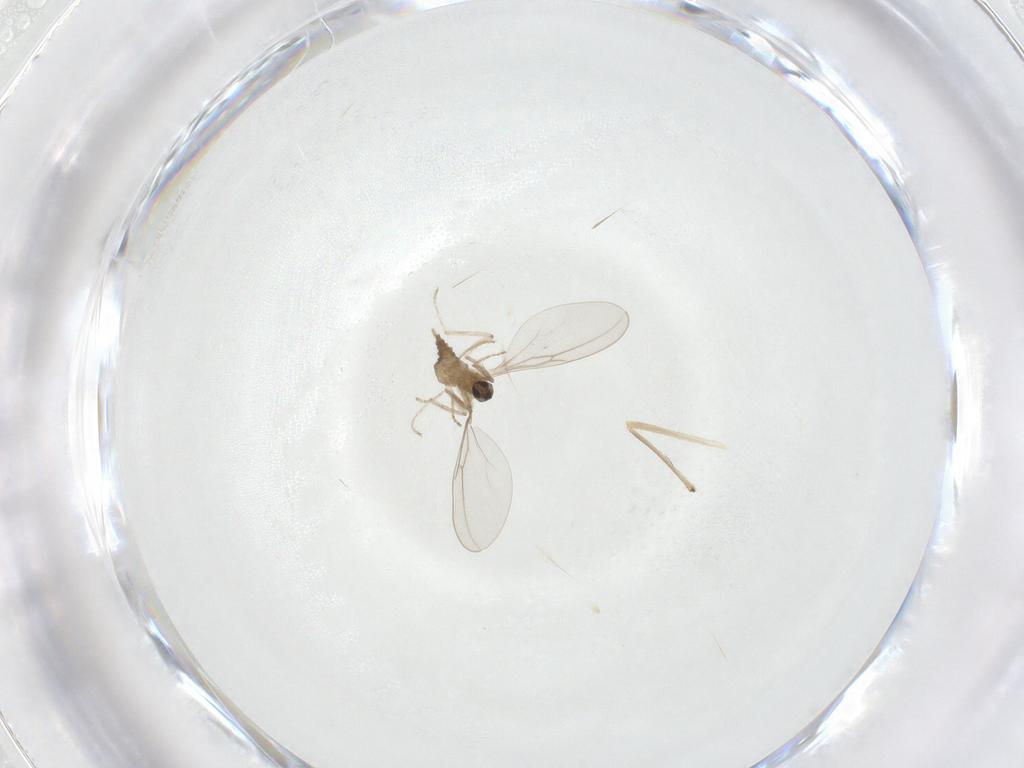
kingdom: Animalia
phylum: Arthropoda
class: Insecta
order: Diptera
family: Cecidomyiidae
